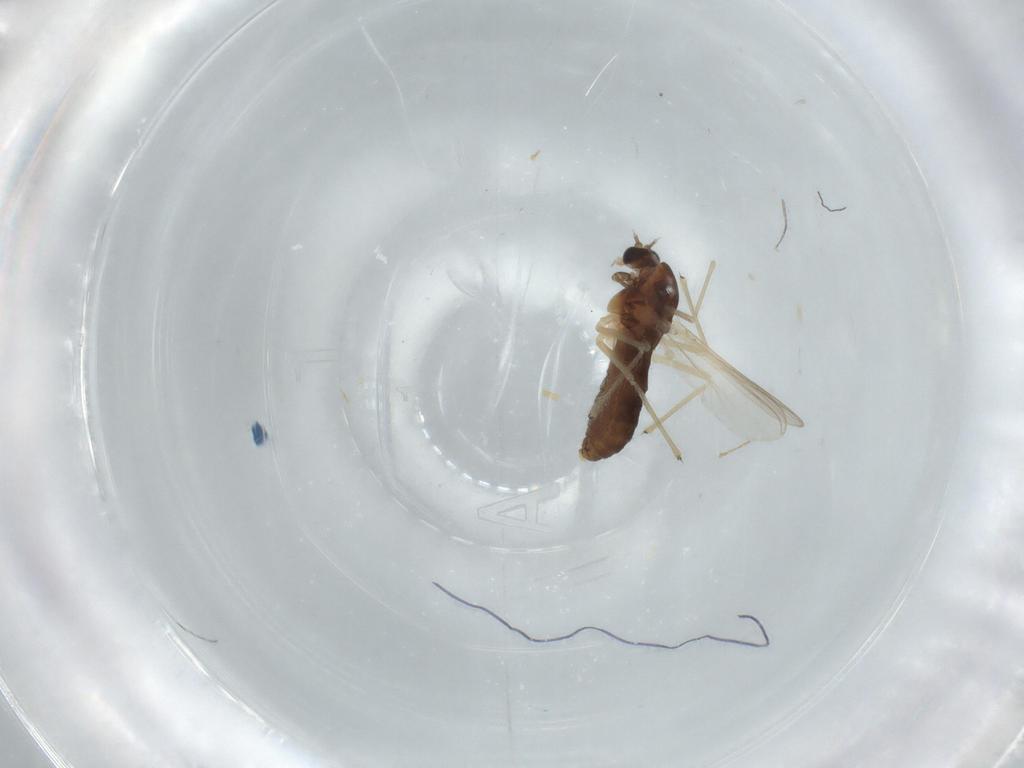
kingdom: Animalia
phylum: Arthropoda
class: Insecta
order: Diptera
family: Chironomidae
